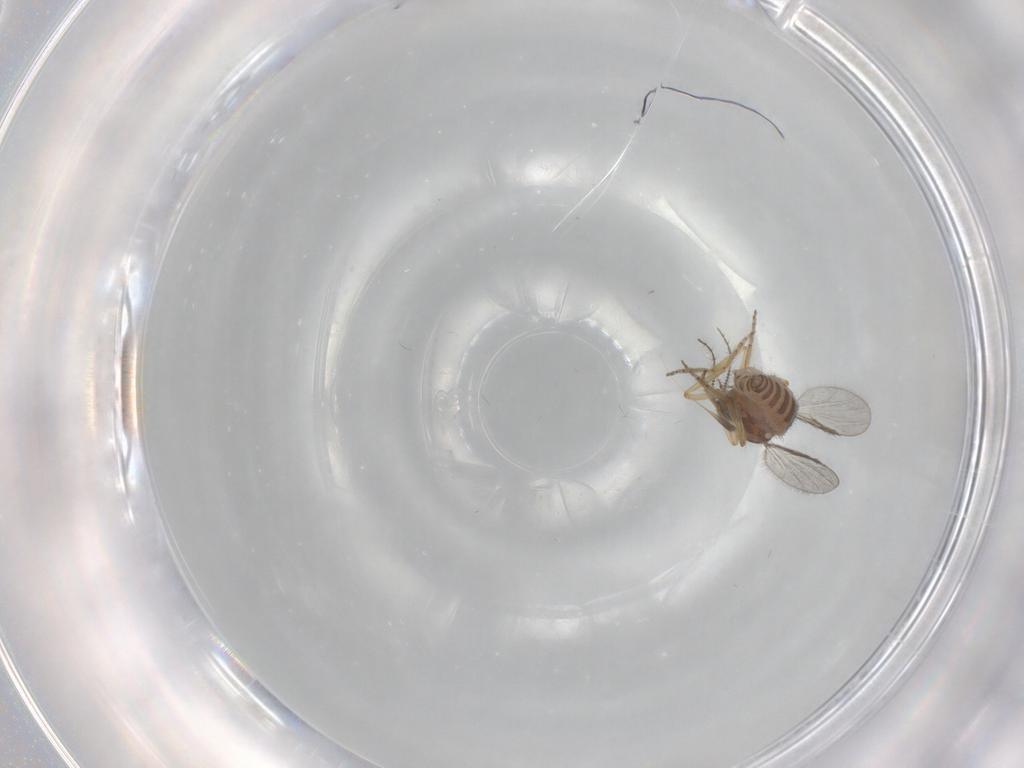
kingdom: Animalia
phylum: Arthropoda
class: Insecta
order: Diptera
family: Ceratopogonidae
